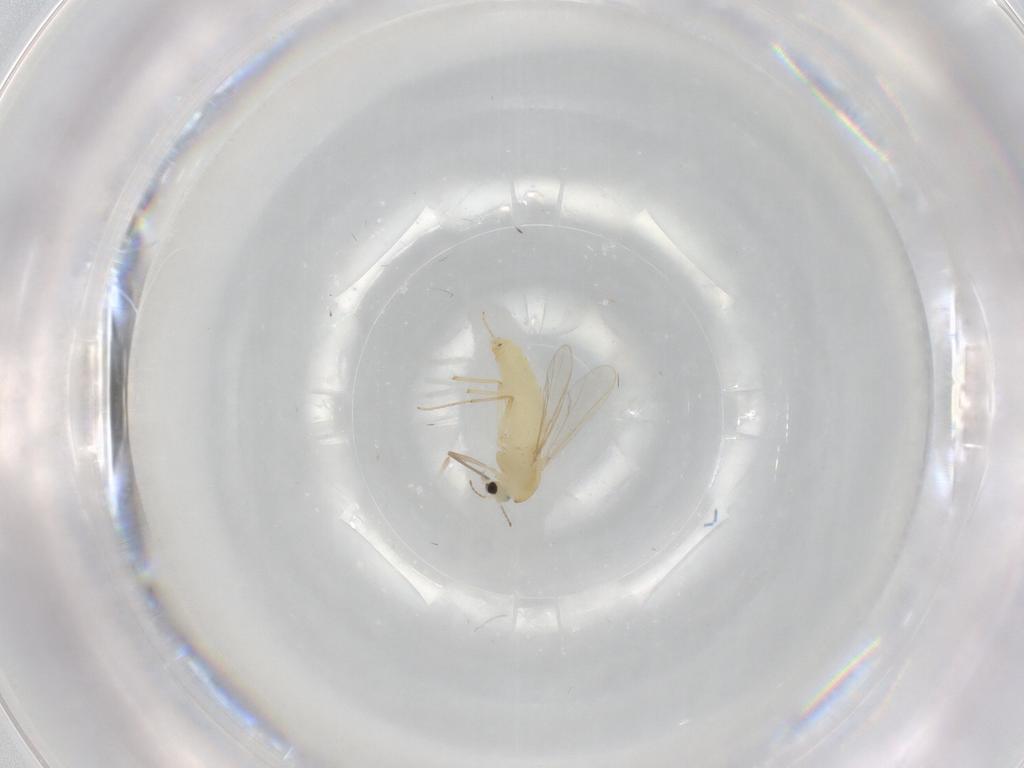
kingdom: Animalia
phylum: Arthropoda
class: Insecta
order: Diptera
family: Chironomidae
